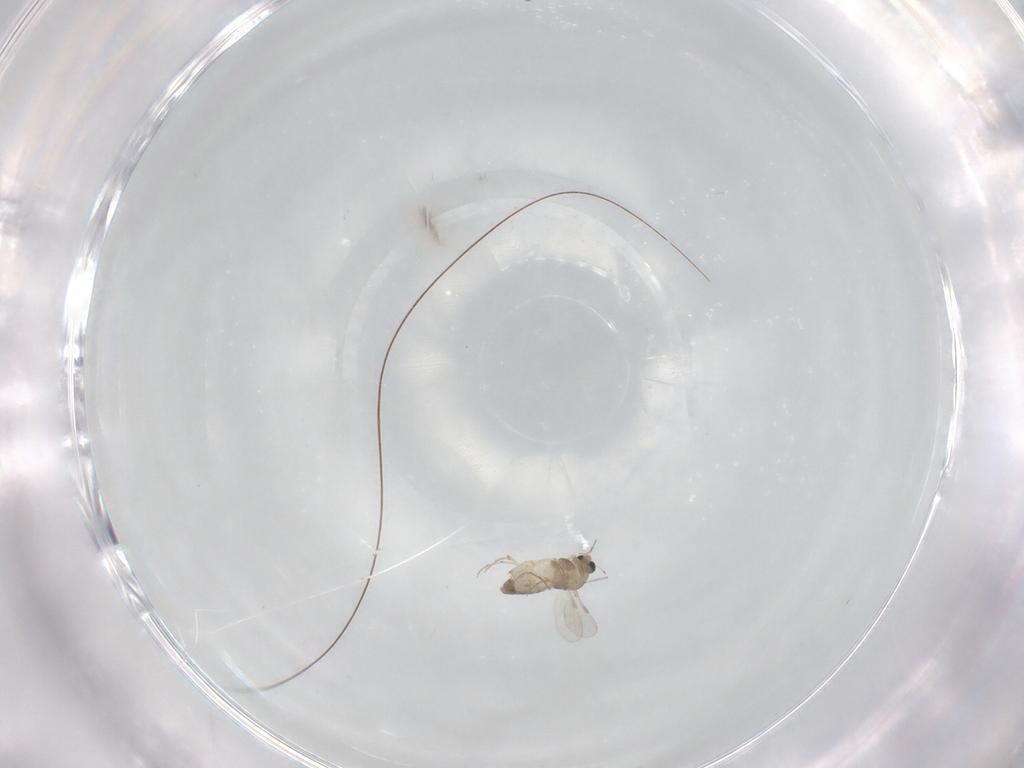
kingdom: Animalia
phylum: Arthropoda
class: Insecta
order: Diptera
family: Chironomidae
